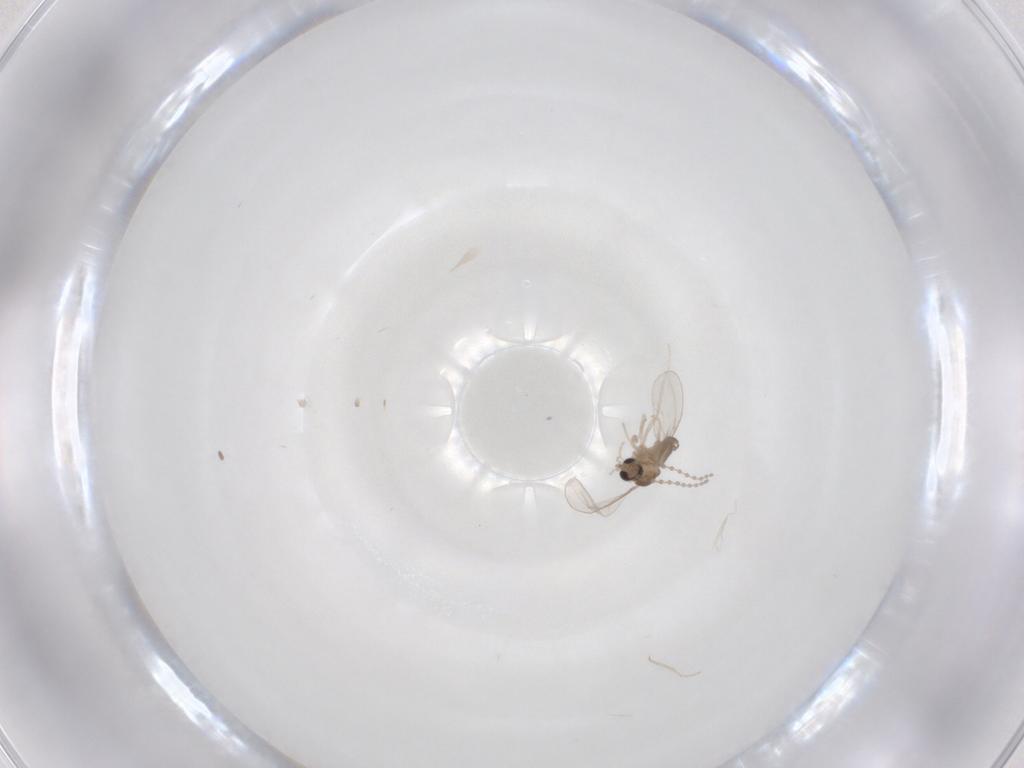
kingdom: Animalia
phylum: Arthropoda
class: Insecta
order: Diptera
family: Cecidomyiidae
